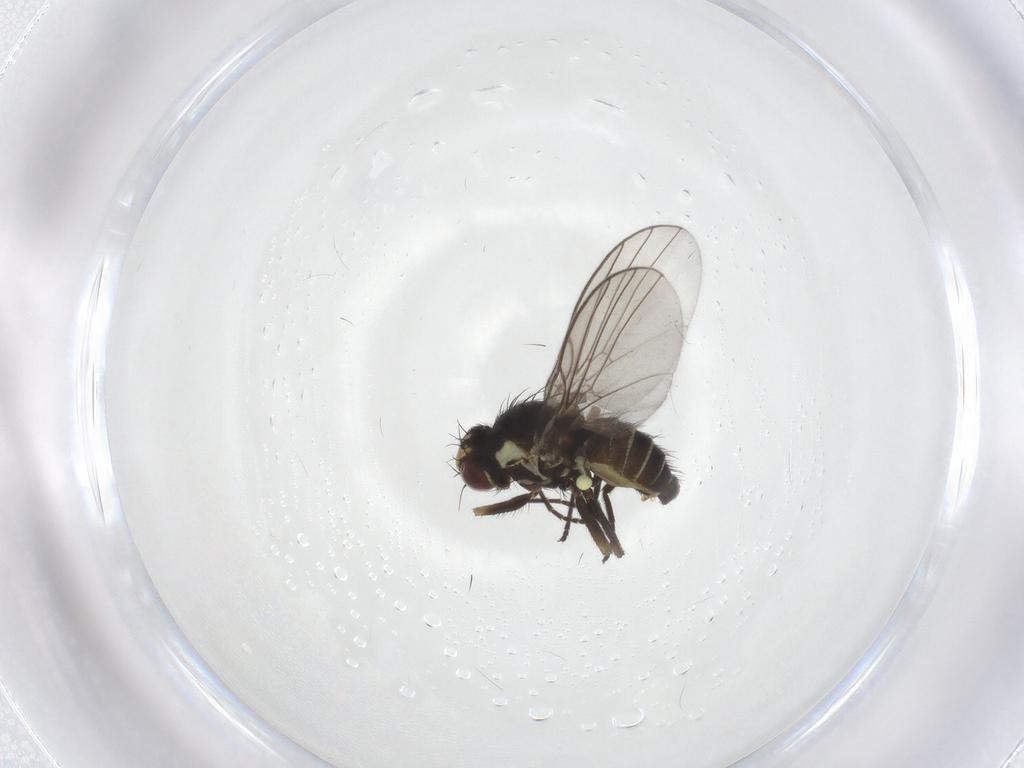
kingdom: Animalia
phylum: Arthropoda
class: Insecta
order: Diptera
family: Agromyzidae
